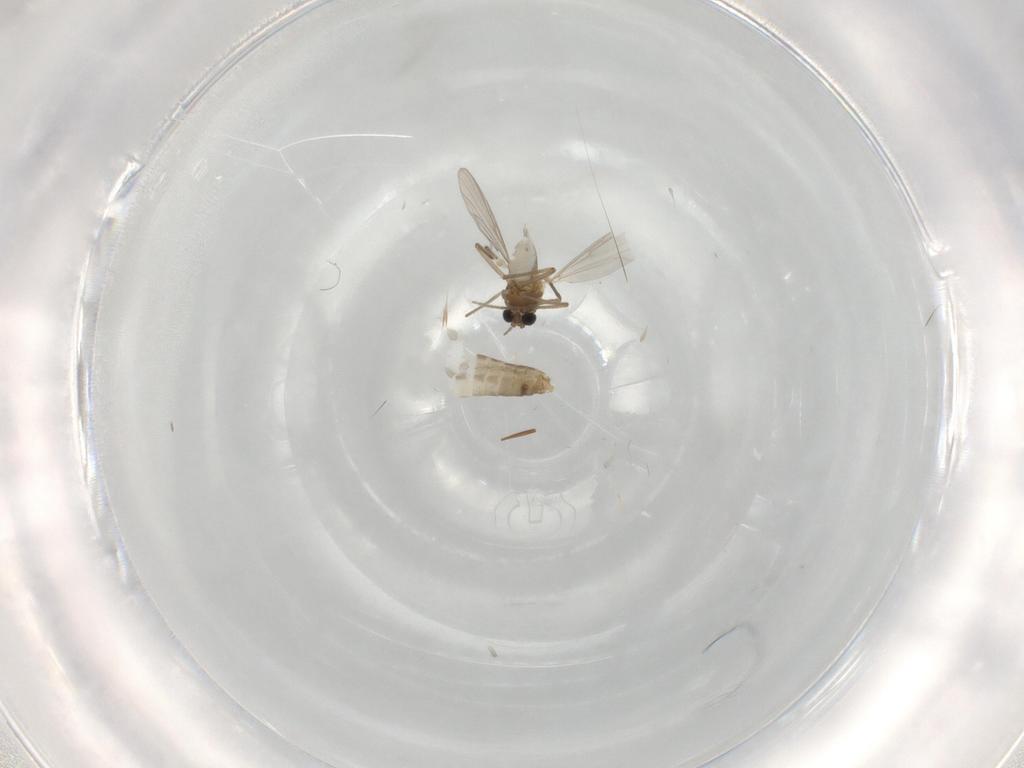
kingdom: Animalia
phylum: Arthropoda
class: Insecta
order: Diptera
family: Chironomidae
